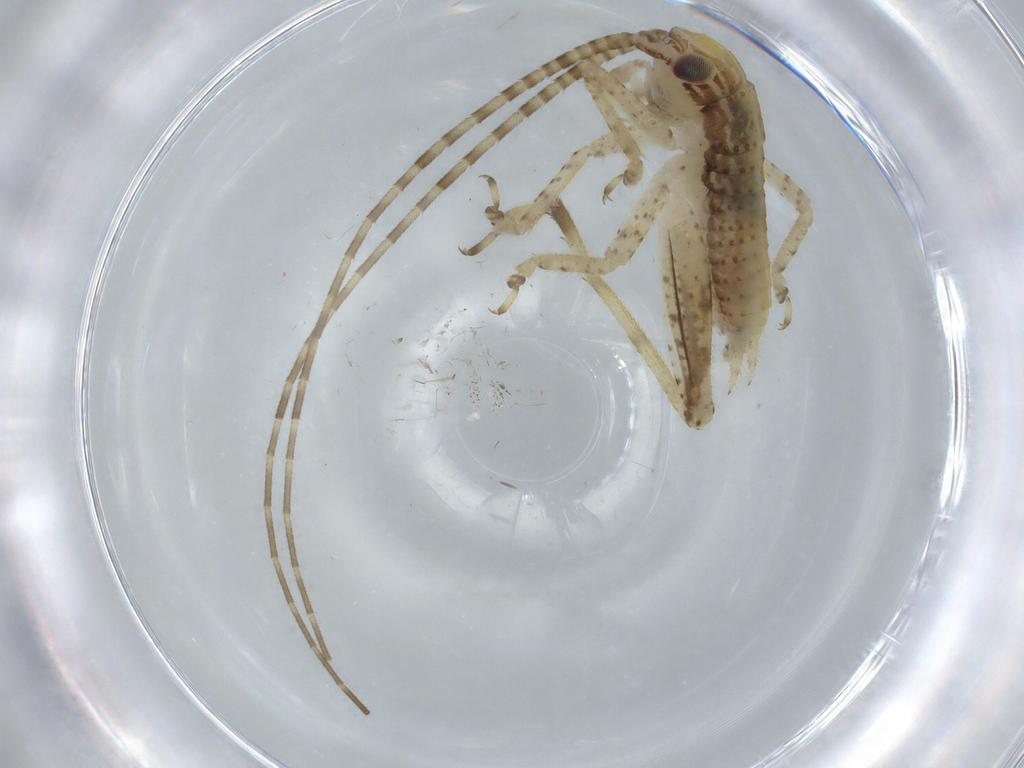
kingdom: Animalia
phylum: Arthropoda
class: Insecta
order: Orthoptera
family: Gryllidae
